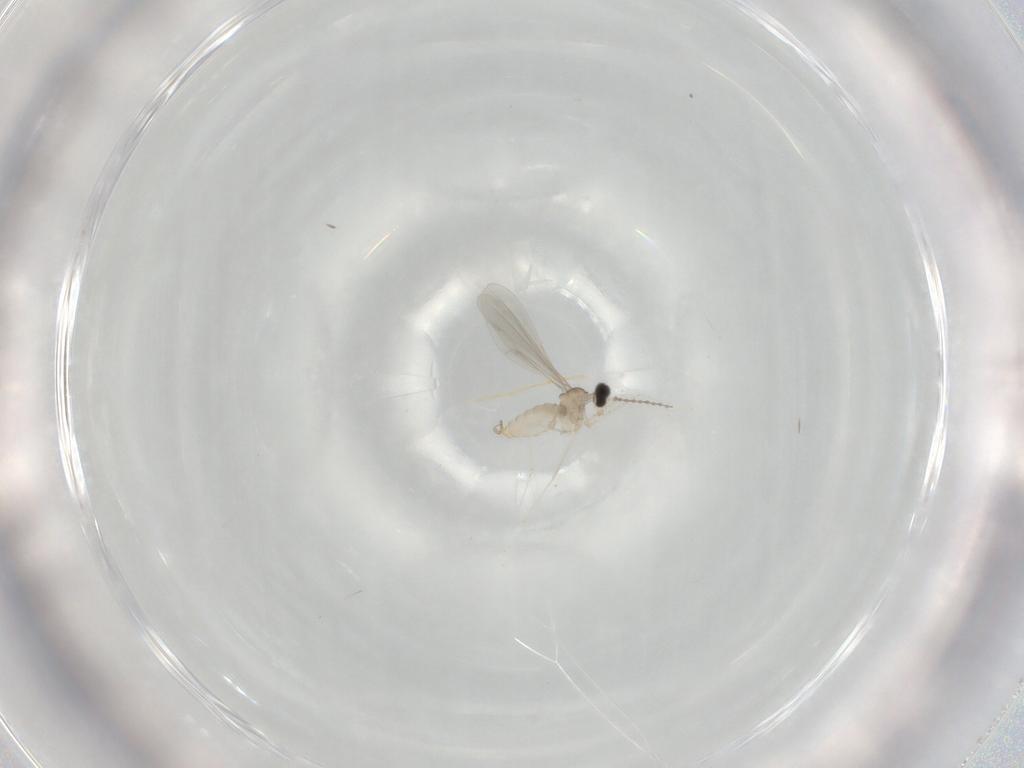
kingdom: Animalia
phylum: Arthropoda
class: Insecta
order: Diptera
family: Cecidomyiidae
